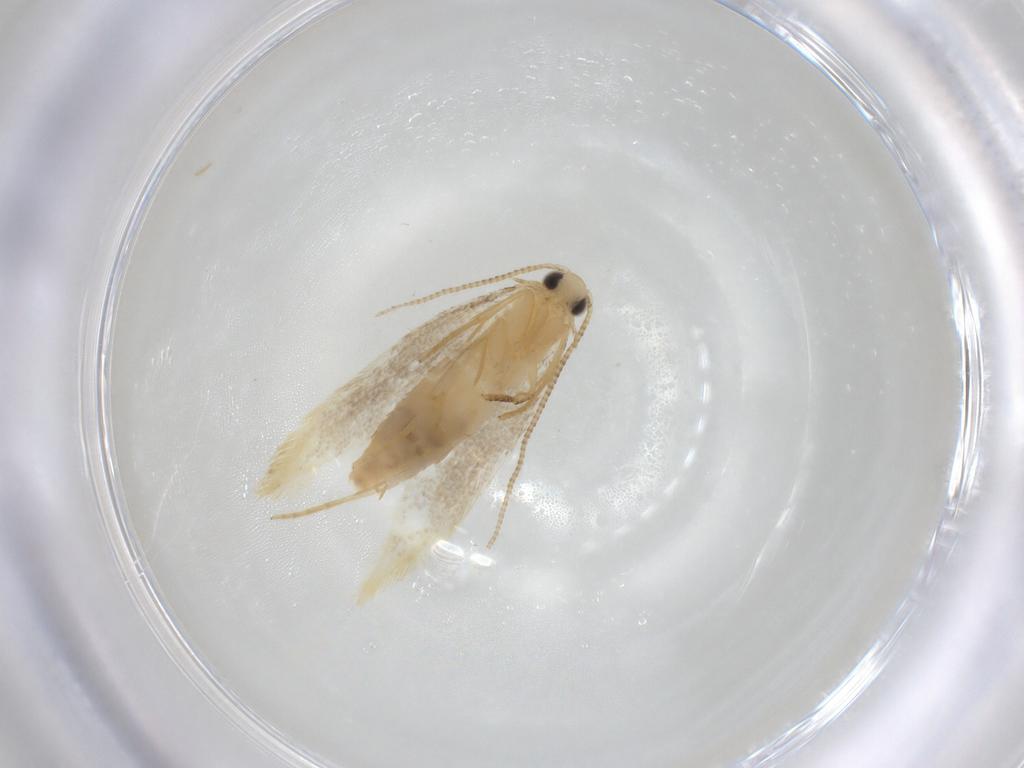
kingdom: Animalia
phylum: Arthropoda
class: Insecta
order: Lepidoptera
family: Tineidae
